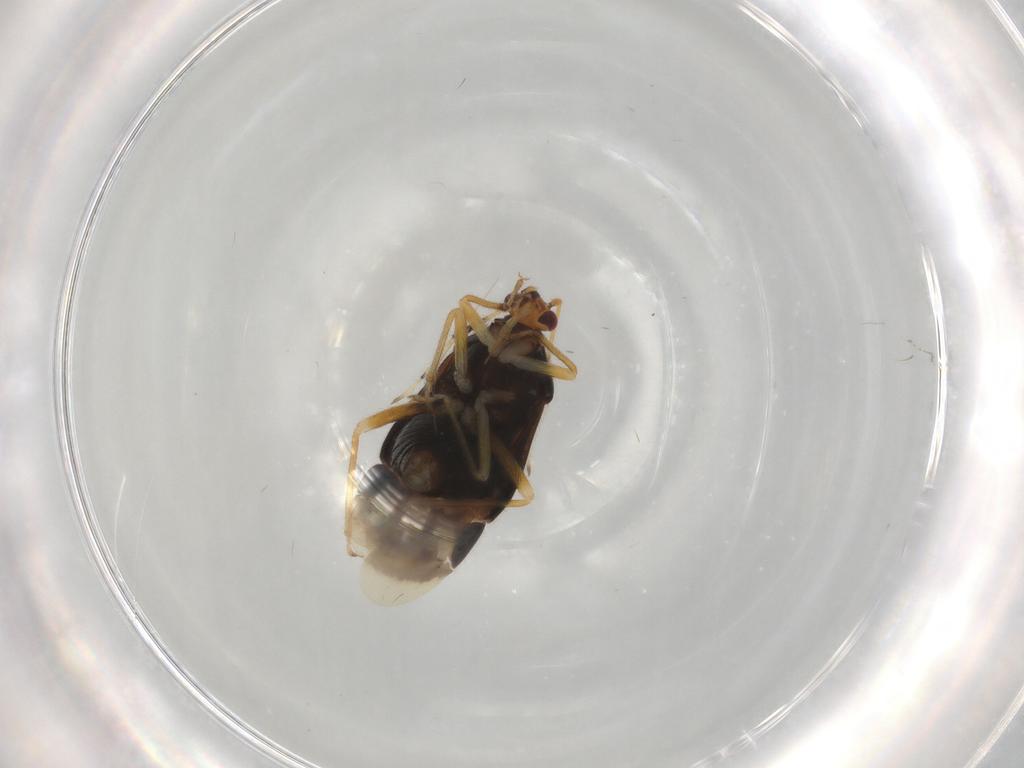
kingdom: Animalia
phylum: Arthropoda
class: Insecta
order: Hemiptera
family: Miridae
